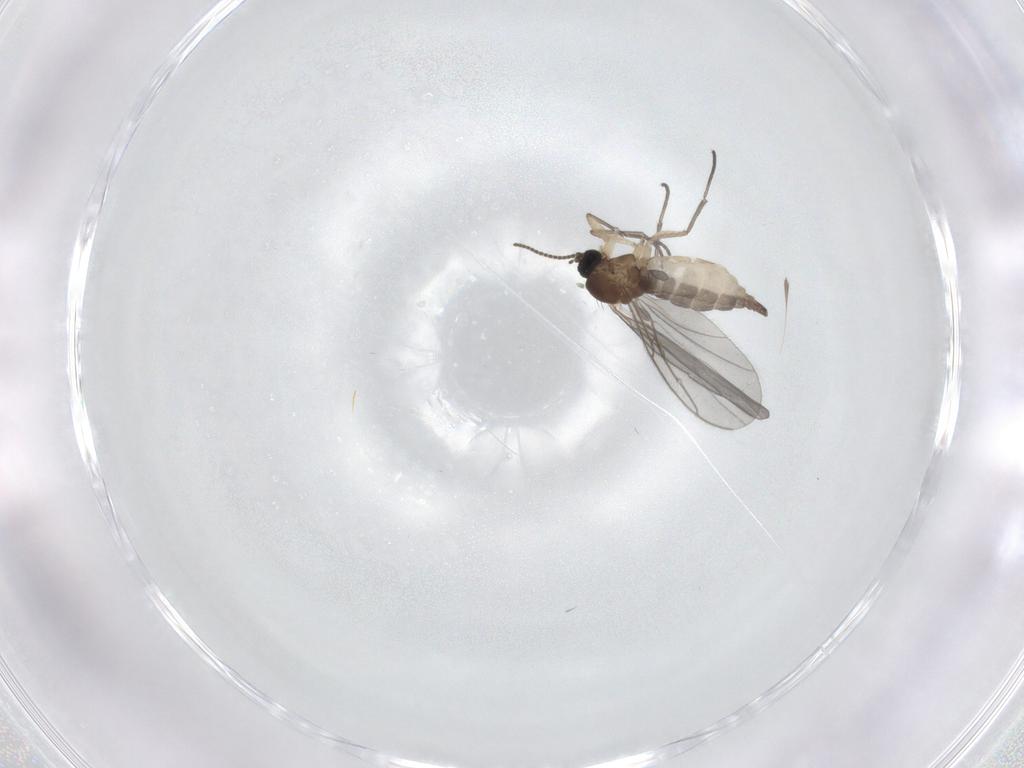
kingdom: Animalia
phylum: Arthropoda
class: Insecta
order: Diptera
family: Sciaridae
